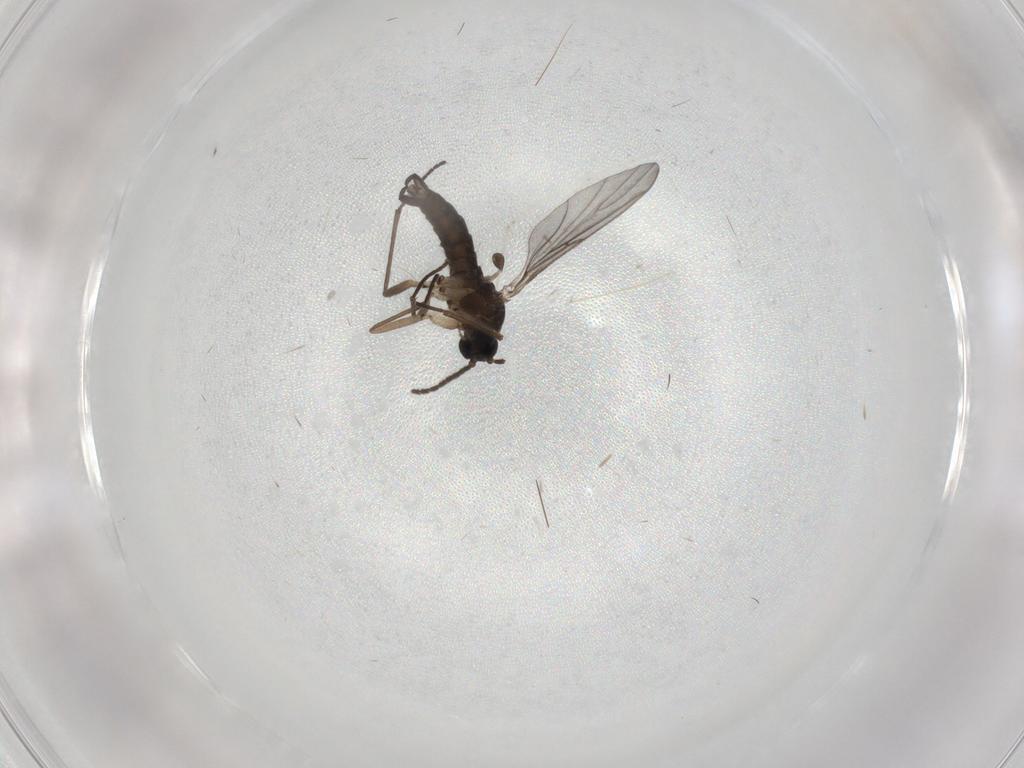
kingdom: Animalia
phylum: Arthropoda
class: Insecta
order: Diptera
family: Sciaridae
